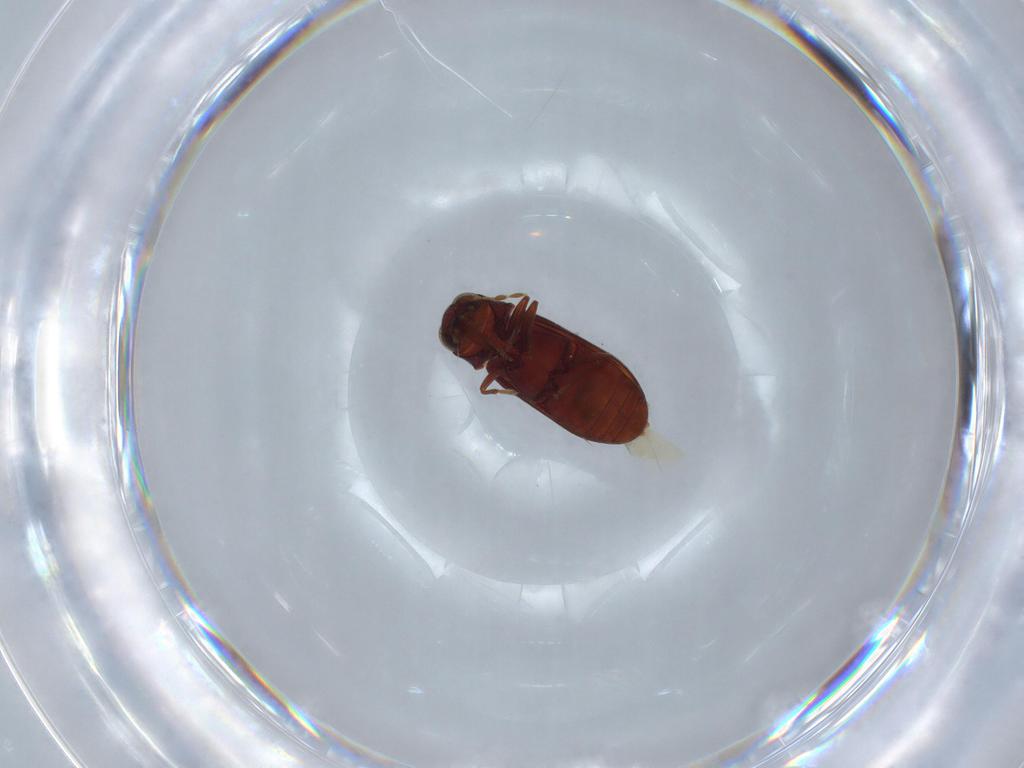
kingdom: Animalia
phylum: Arthropoda
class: Insecta
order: Coleoptera
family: Ptinidae
